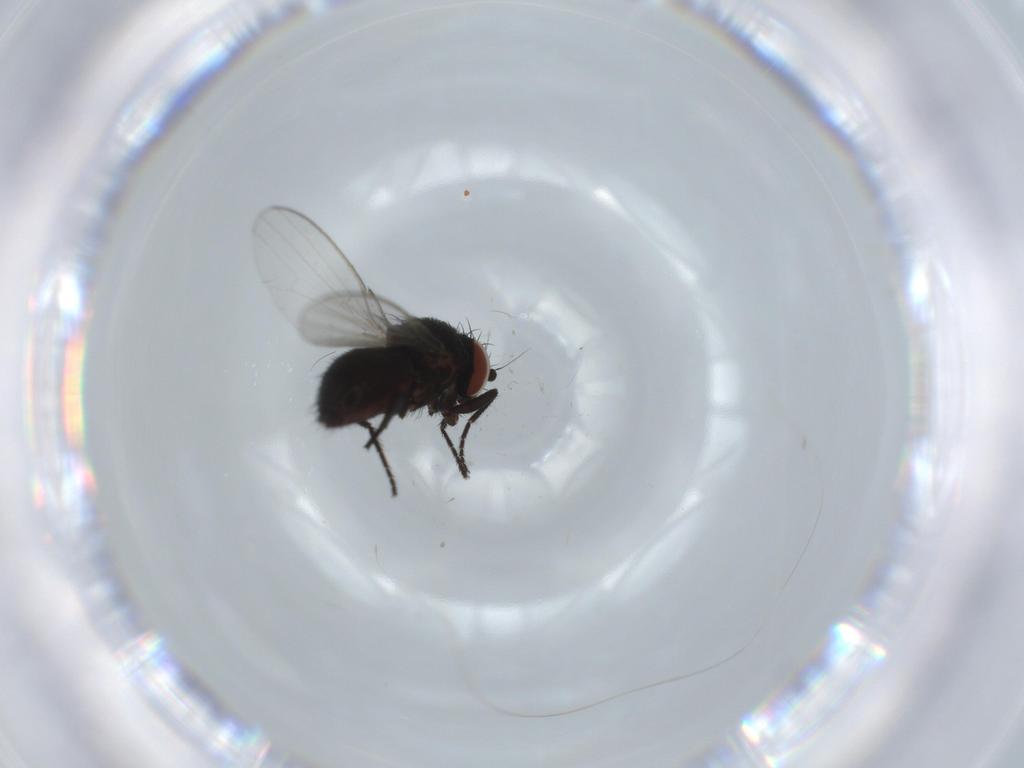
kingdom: Animalia
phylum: Arthropoda
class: Insecta
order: Diptera
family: Milichiidae
